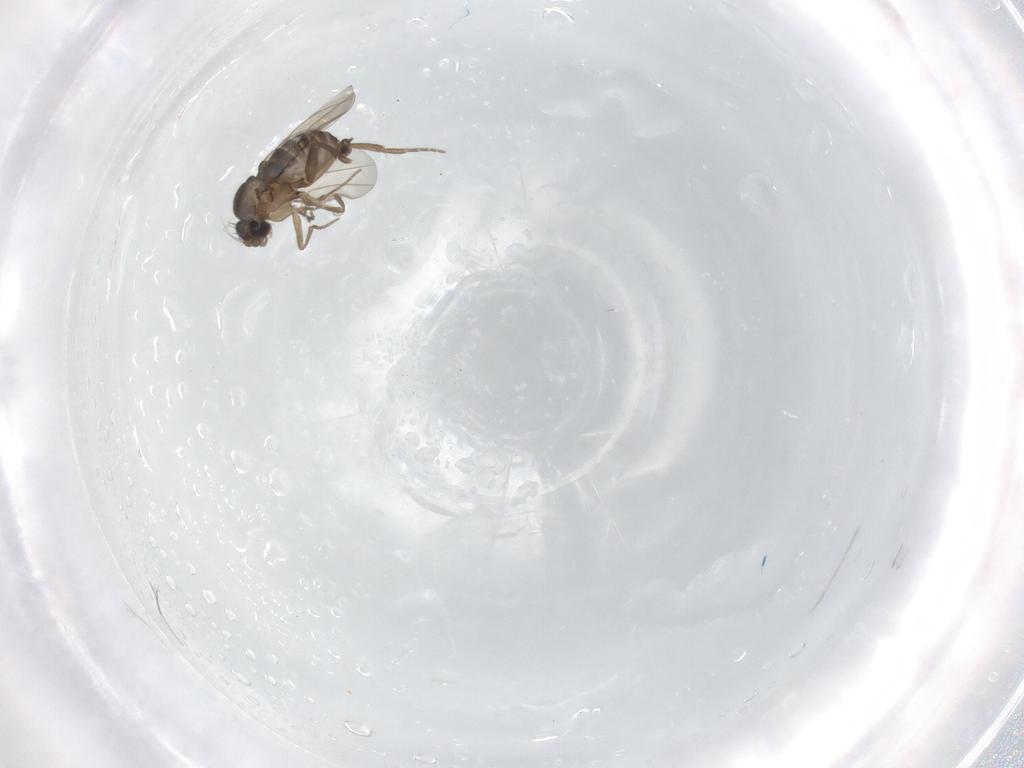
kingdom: Animalia
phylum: Arthropoda
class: Insecta
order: Diptera
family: Phoridae
